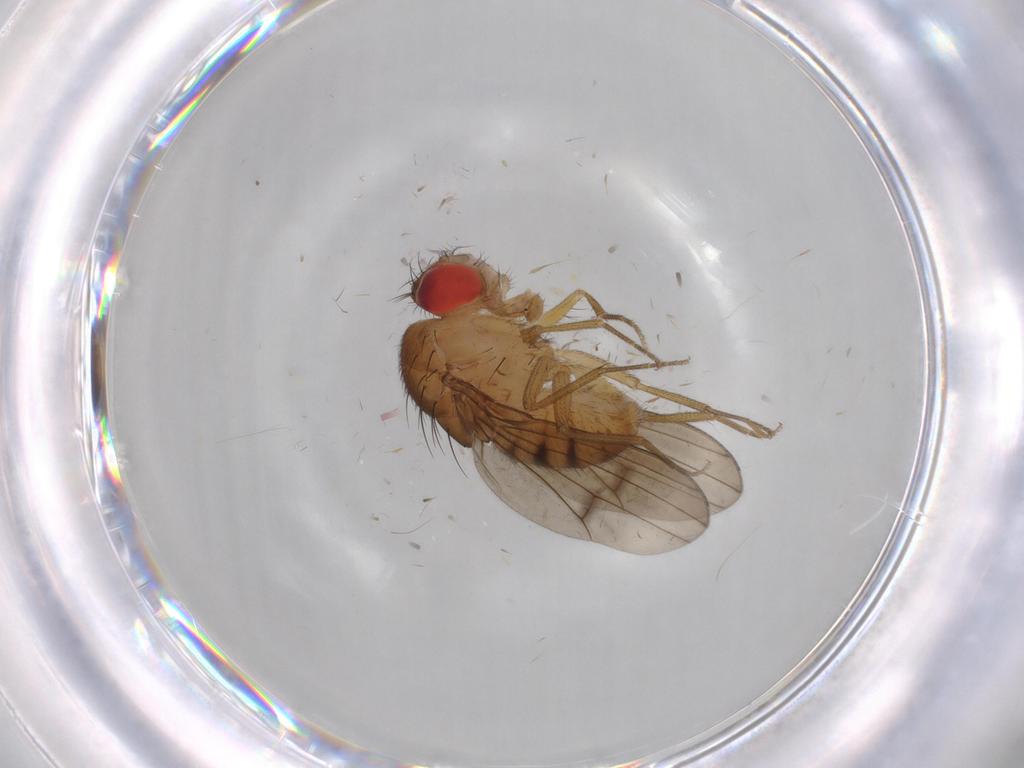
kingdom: Animalia
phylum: Arthropoda
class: Insecta
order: Diptera
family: Drosophilidae
